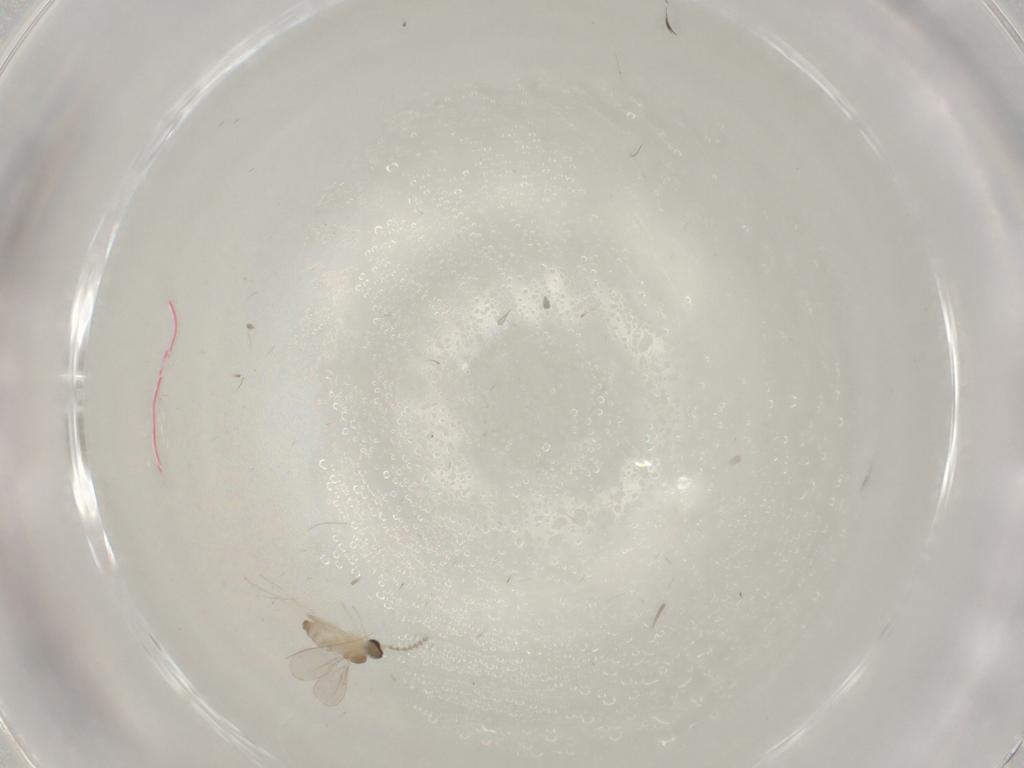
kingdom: Animalia
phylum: Arthropoda
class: Insecta
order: Diptera
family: Cecidomyiidae
